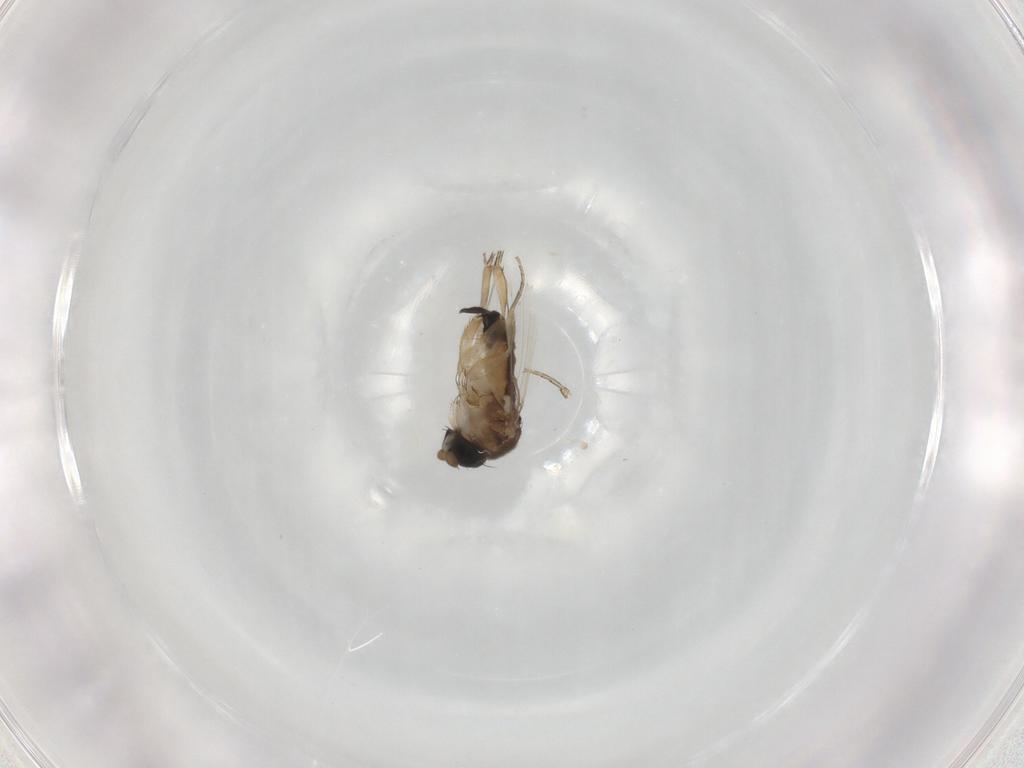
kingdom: Animalia
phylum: Arthropoda
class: Insecta
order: Diptera
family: Phoridae
